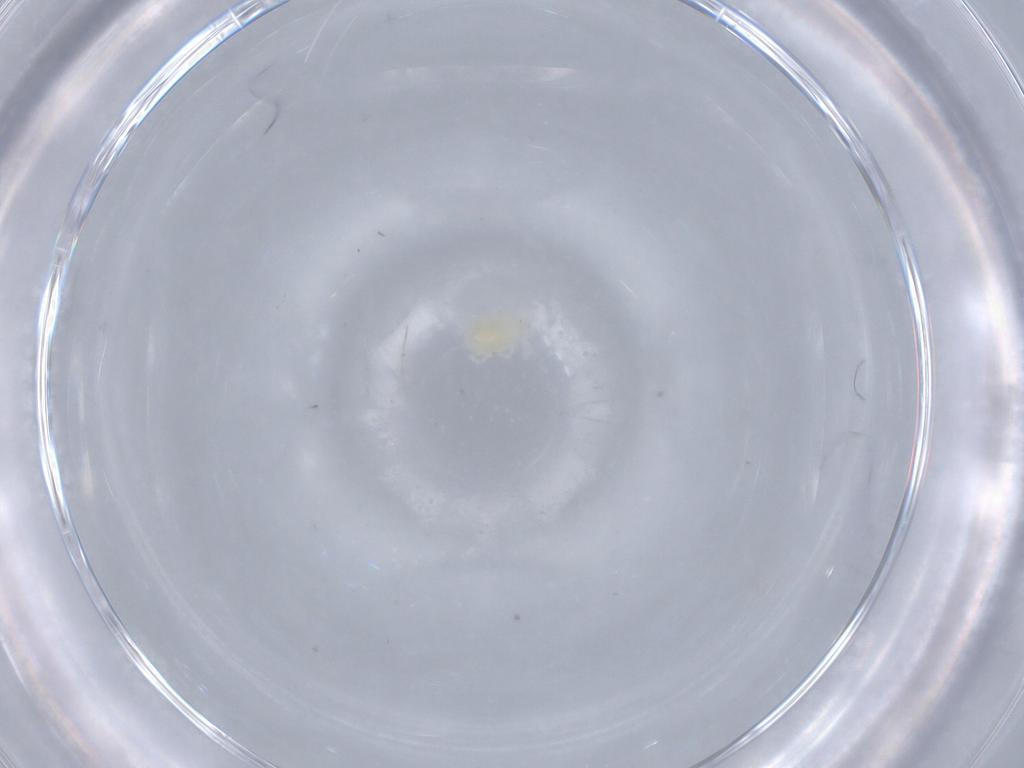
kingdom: Animalia
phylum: Arthropoda
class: Arachnida
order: Trombidiformes
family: Erythraeidae
